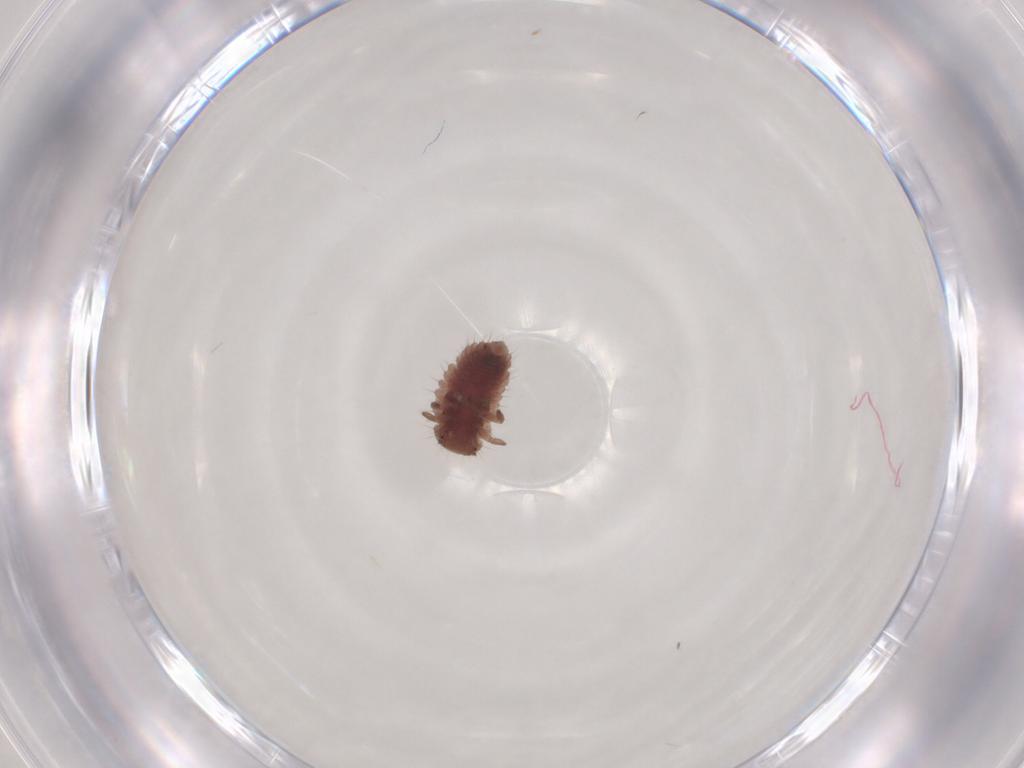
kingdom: Animalia
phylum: Arthropoda
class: Insecta
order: Coleoptera
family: Coccinellidae
